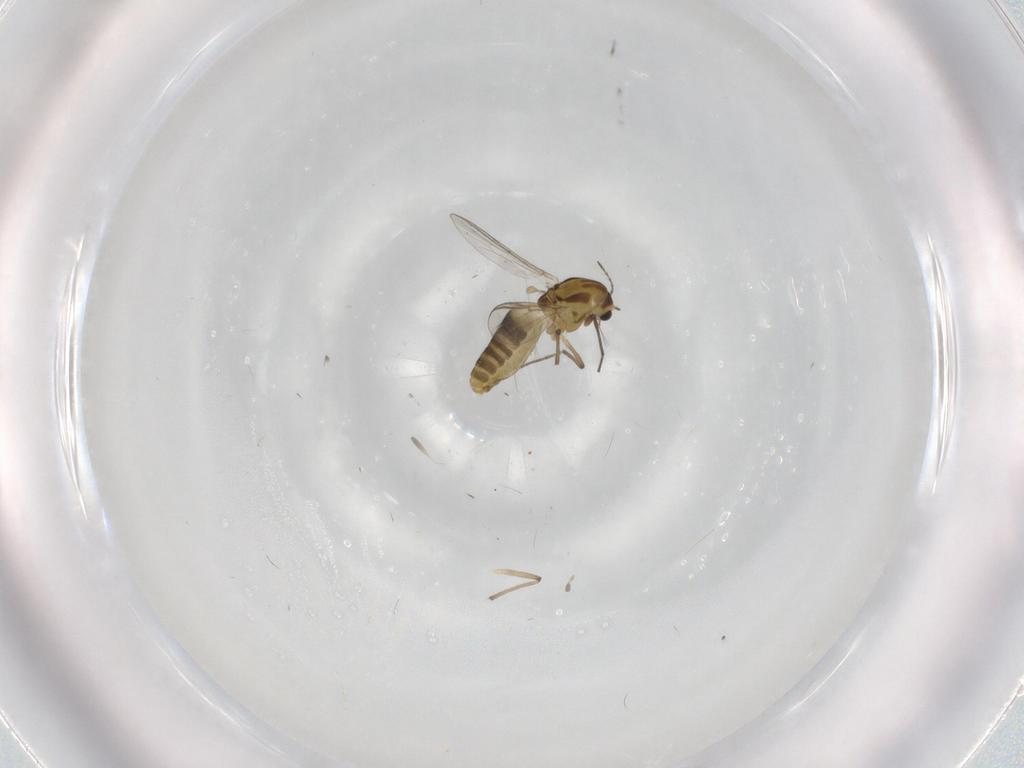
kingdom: Animalia
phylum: Arthropoda
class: Insecta
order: Diptera
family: Chironomidae
